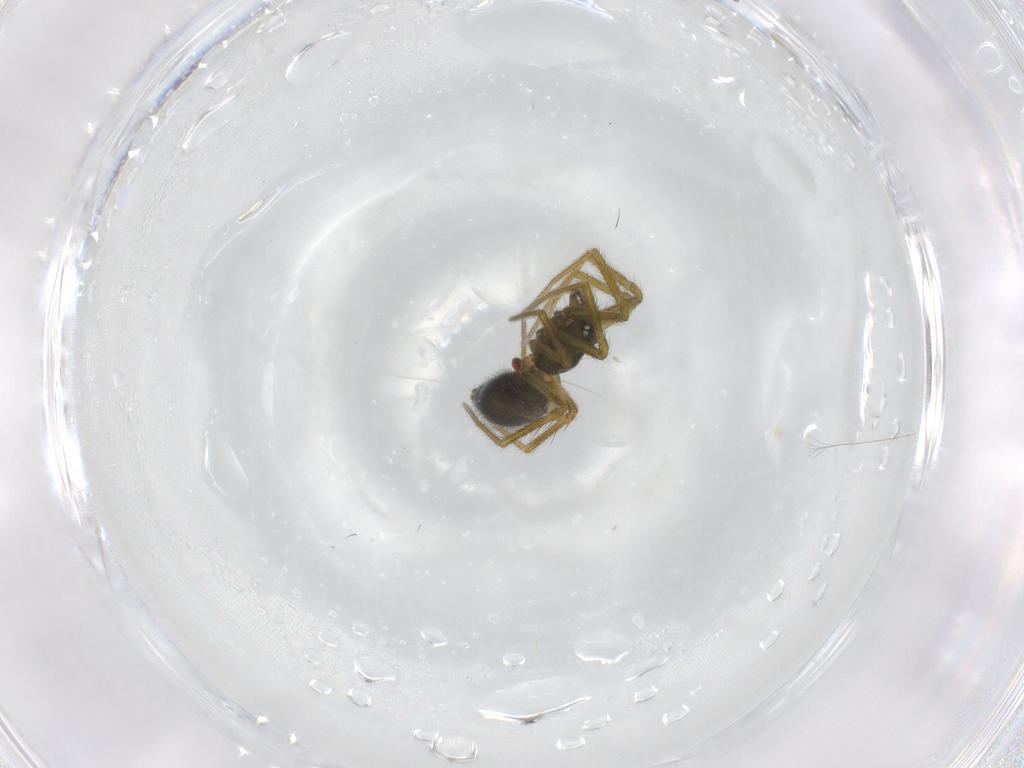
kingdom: Animalia
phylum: Arthropoda
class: Arachnida
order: Araneae
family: Linyphiidae
